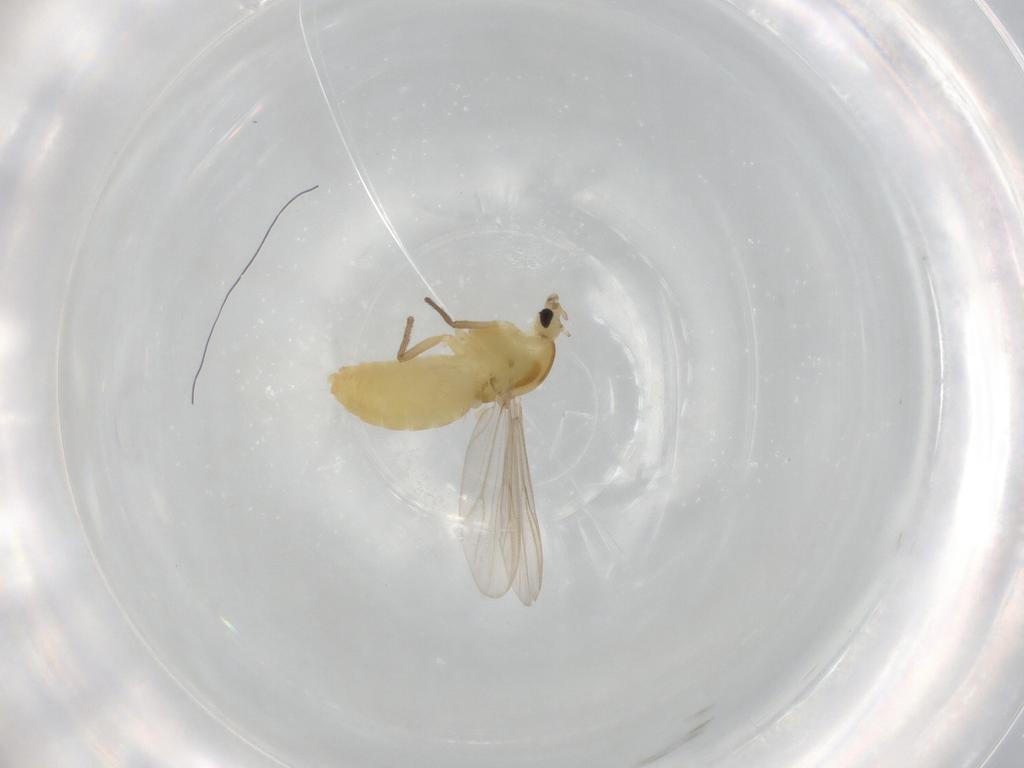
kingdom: Animalia
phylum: Arthropoda
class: Insecta
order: Diptera
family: Chironomidae
